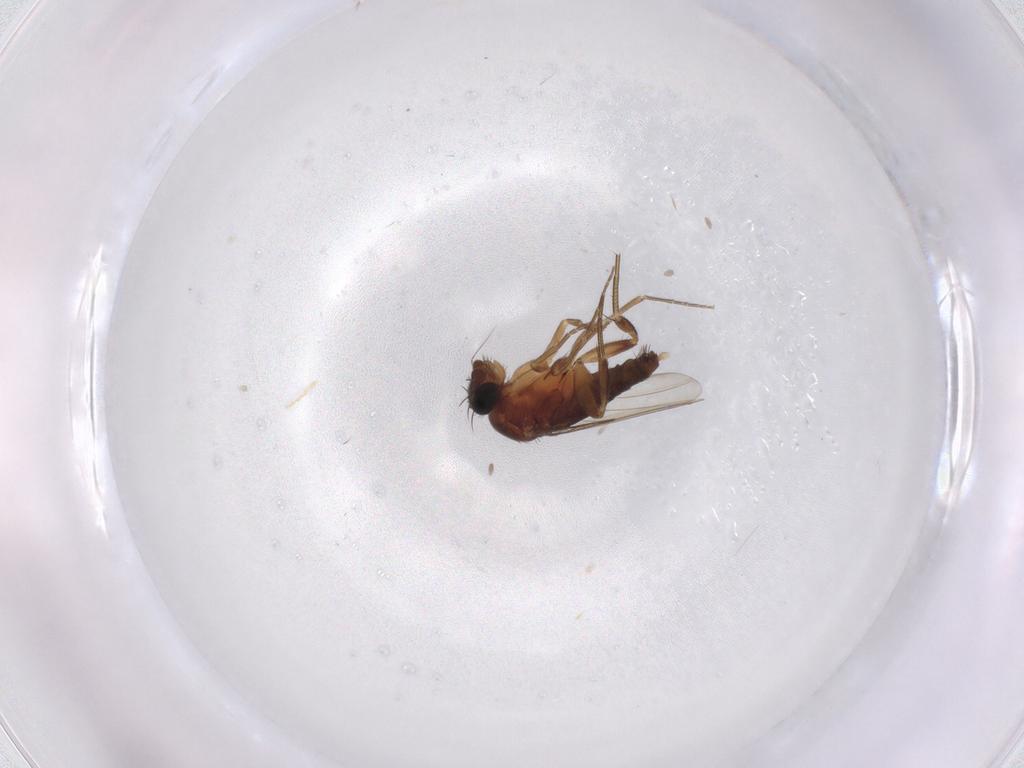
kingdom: Animalia
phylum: Arthropoda
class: Insecta
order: Diptera
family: Phoridae
